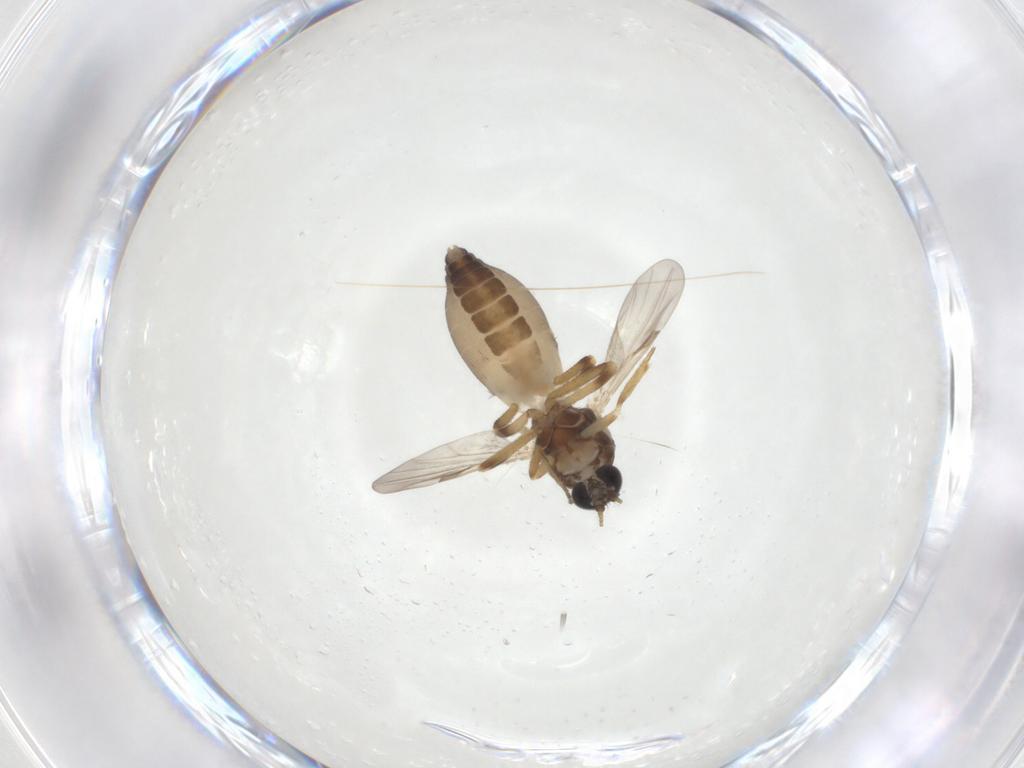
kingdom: Animalia
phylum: Arthropoda
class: Insecta
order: Diptera
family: Ceratopogonidae
